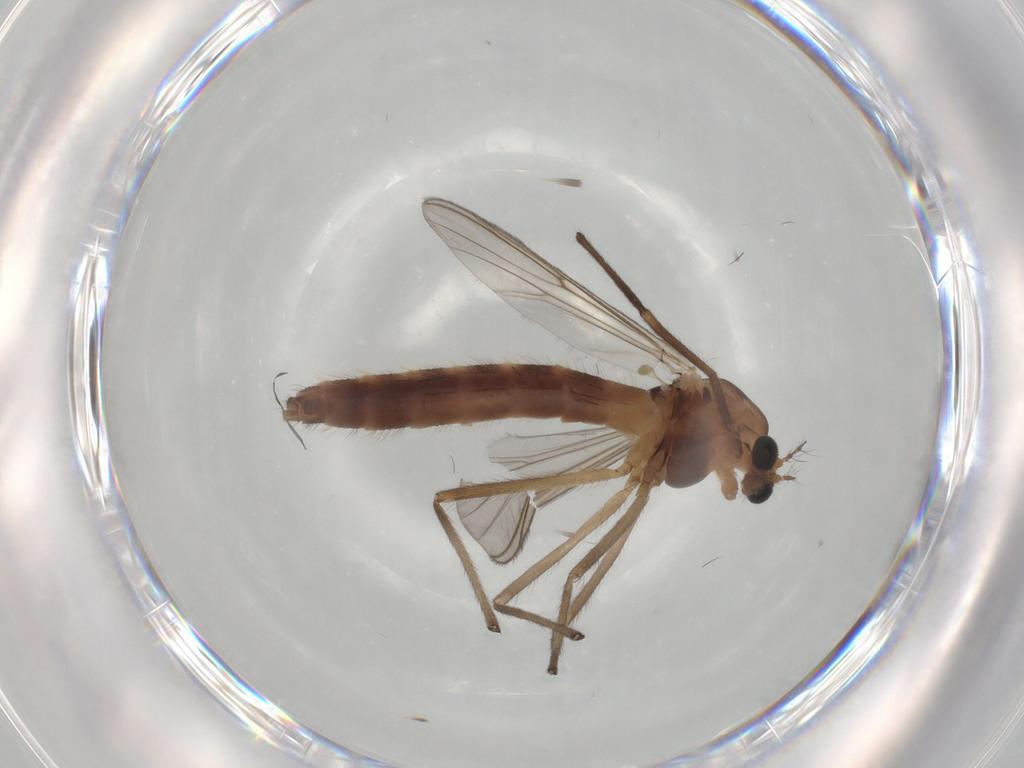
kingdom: Animalia
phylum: Arthropoda
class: Insecta
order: Diptera
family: Chironomidae
